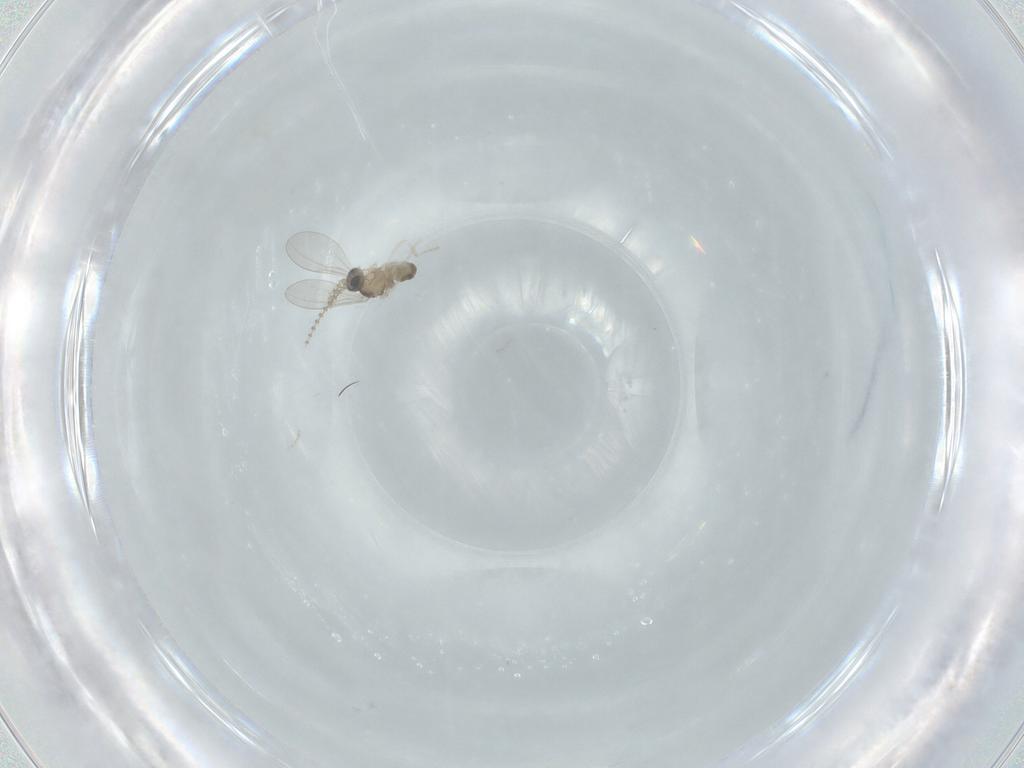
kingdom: Animalia
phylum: Arthropoda
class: Insecta
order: Diptera
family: Cecidomyiidae
